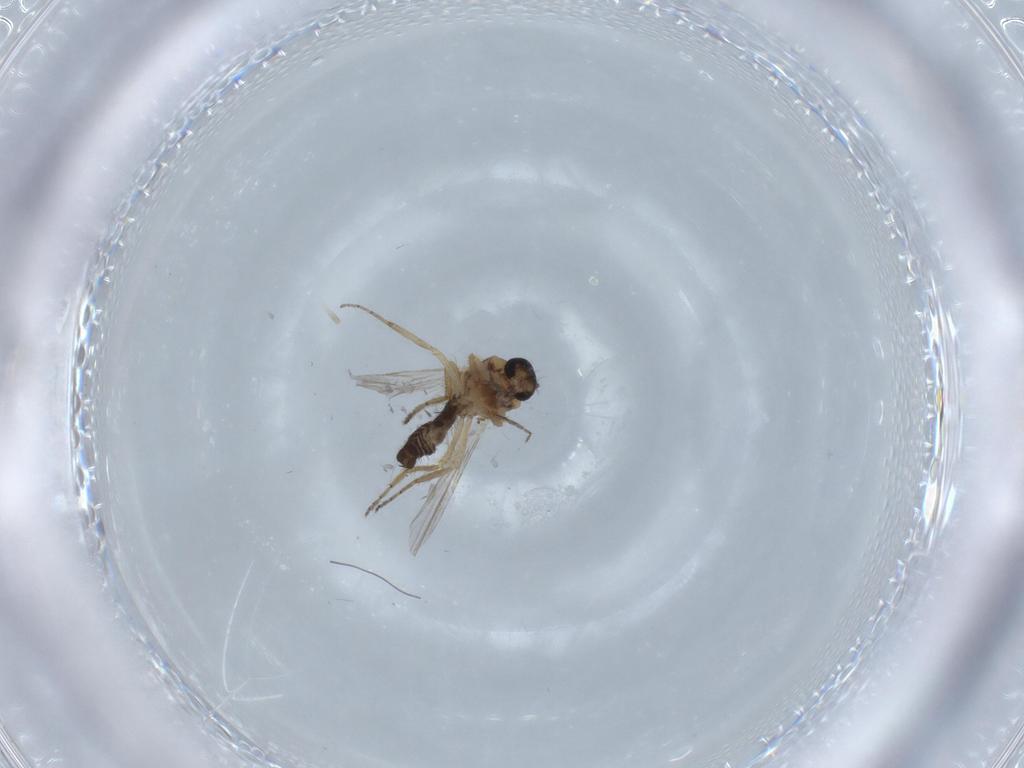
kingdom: Animalia
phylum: Arthropoda
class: Insecta
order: Diptera
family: Ceratopogonidae
